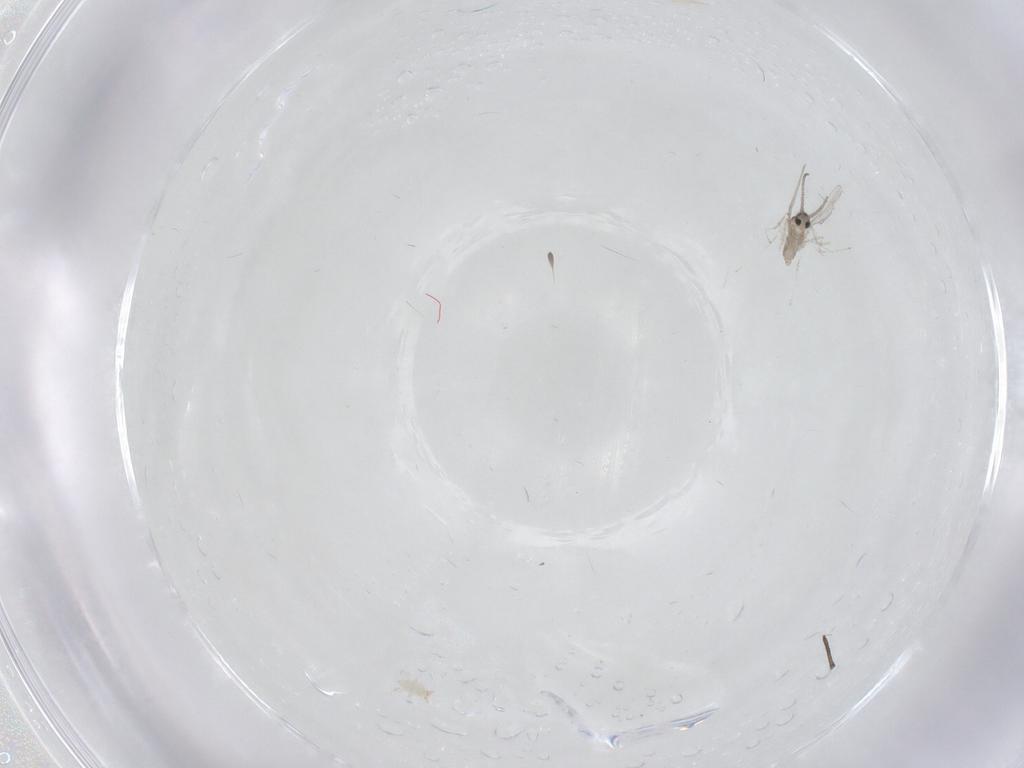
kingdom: Animalia
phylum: Arthropoda
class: Insecta
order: Diptera
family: Cecidomyiidae
